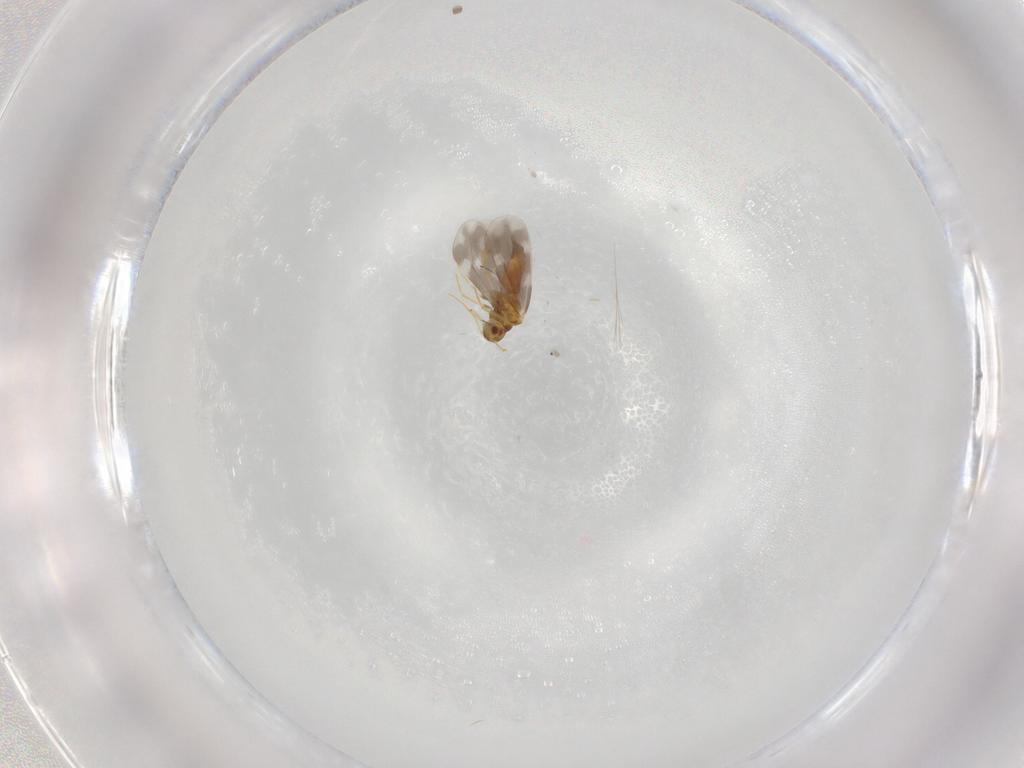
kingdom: Animalia
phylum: Arthropoda
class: Insecta
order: Hemiptera
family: Aleyrodidae
